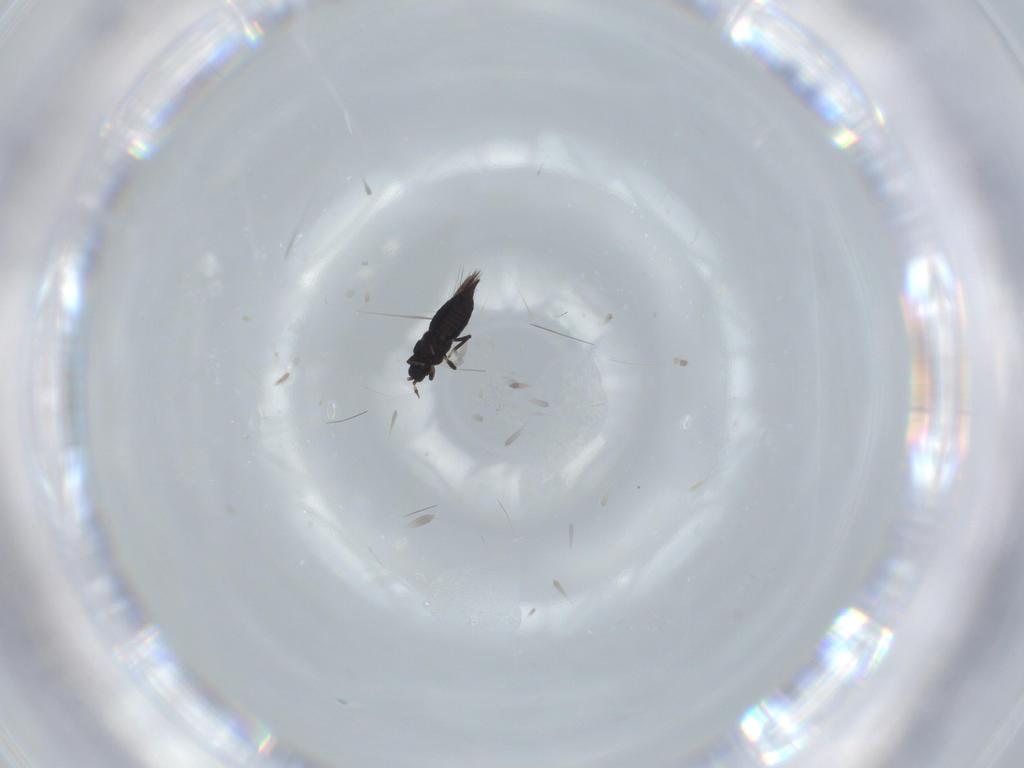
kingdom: Animalia
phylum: Arthropoda
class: Insecta
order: Thysanoptera
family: Heterothripidae
